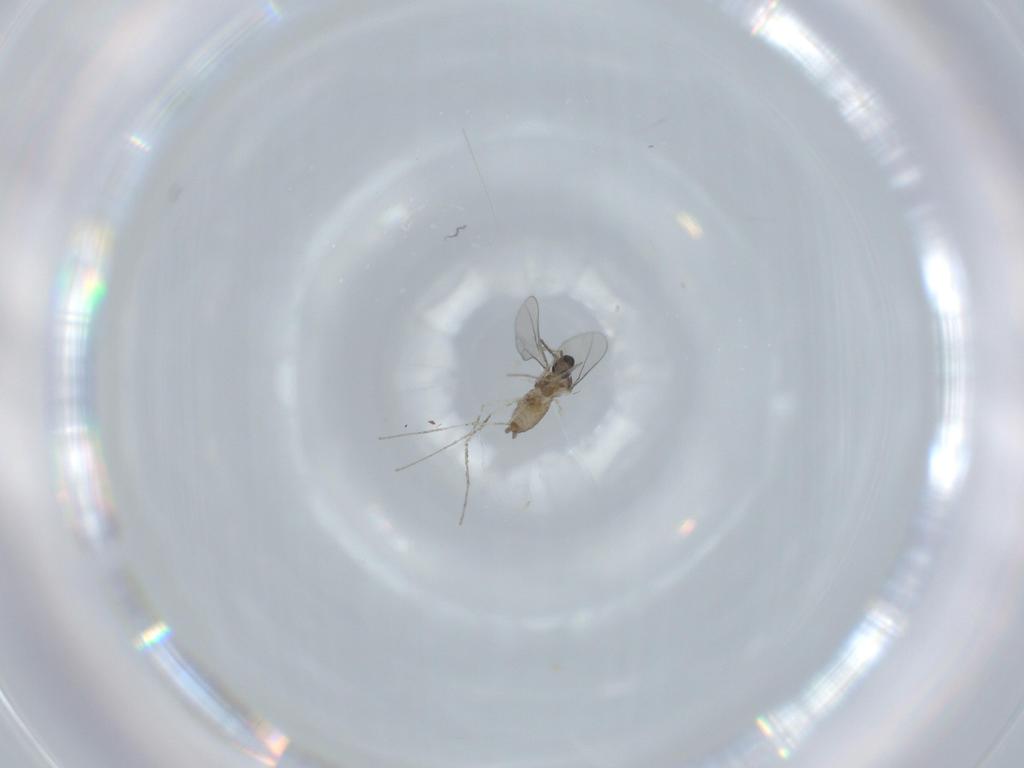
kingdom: Animalia
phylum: Arthropoda
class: Insecta
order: Diptera
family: Cecidomyiidae
